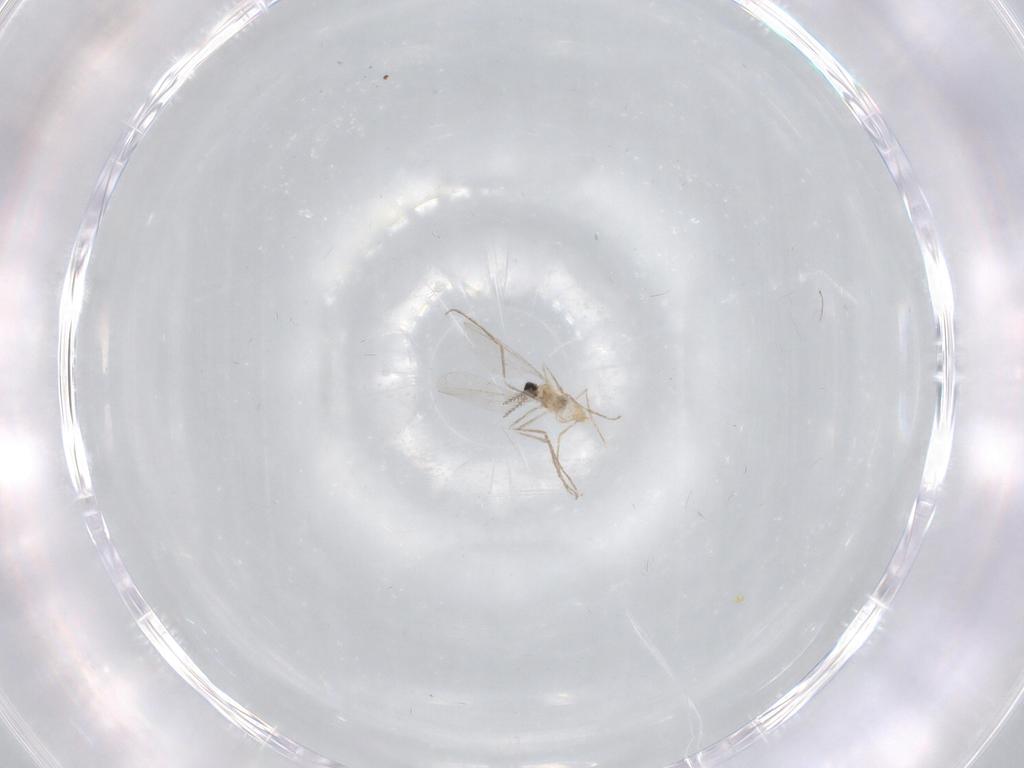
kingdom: Animalia
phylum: Arthropoda
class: Insecta
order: Diptera
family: Cecidomyiidae
